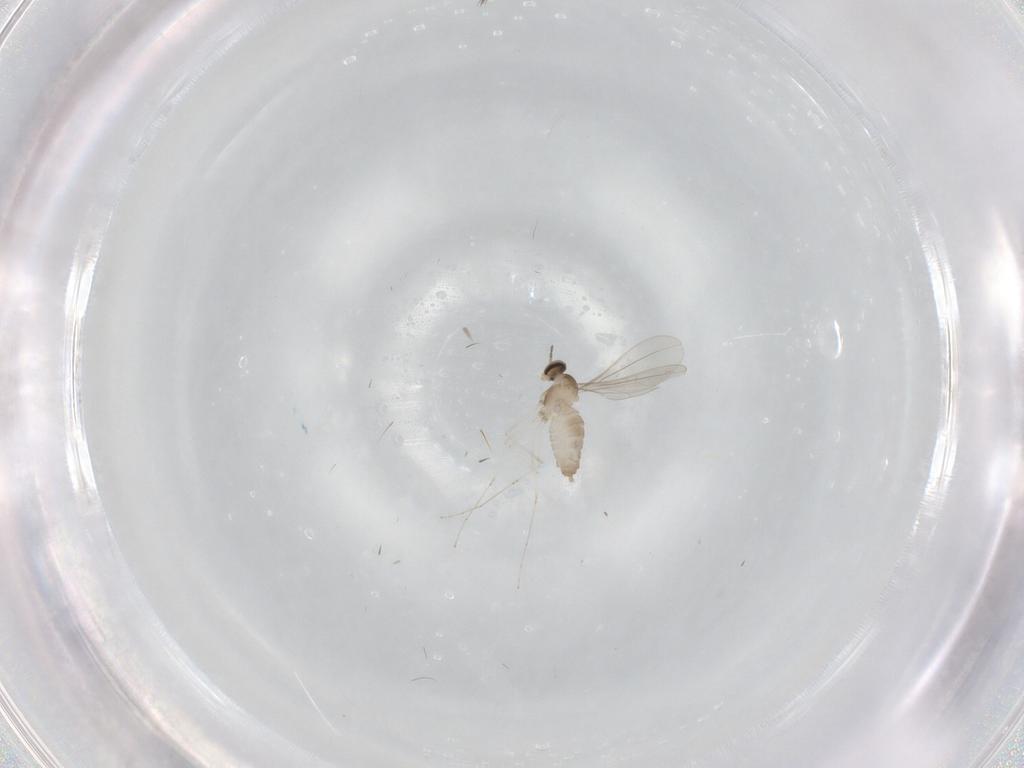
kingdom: Animalia
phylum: Arthropoda
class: Insecta
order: Diptera
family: Cecidomyiidae
